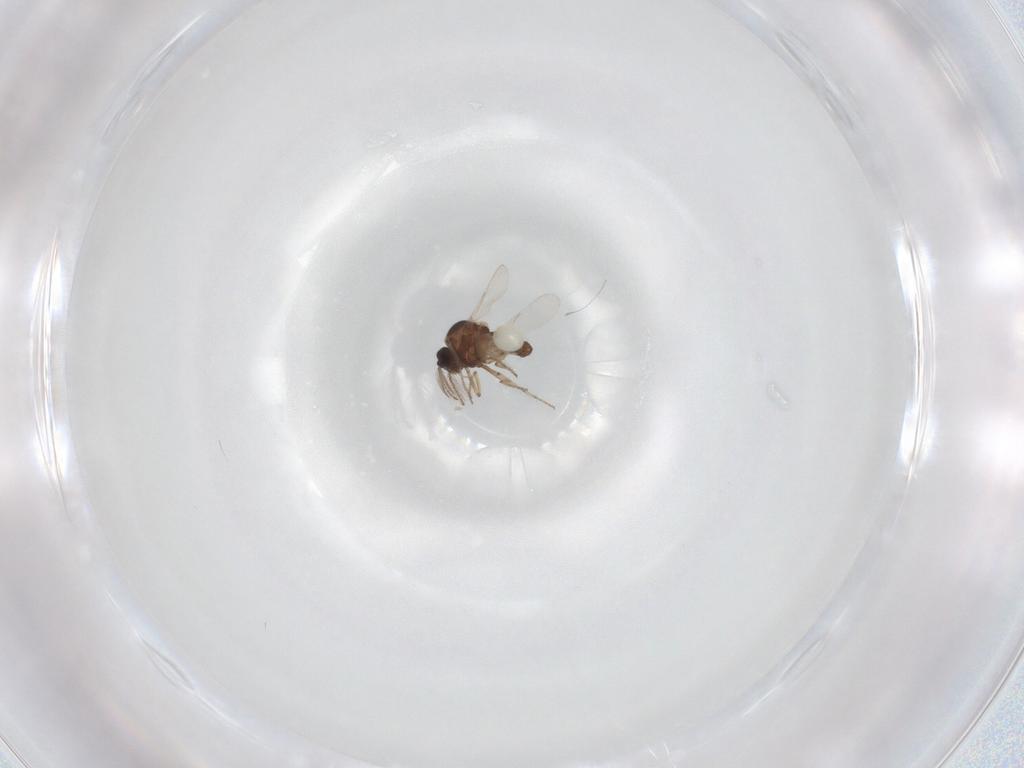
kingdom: Animalia
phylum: Arthropoda
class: Insecta
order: Diptera
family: Ceratopogonidae
